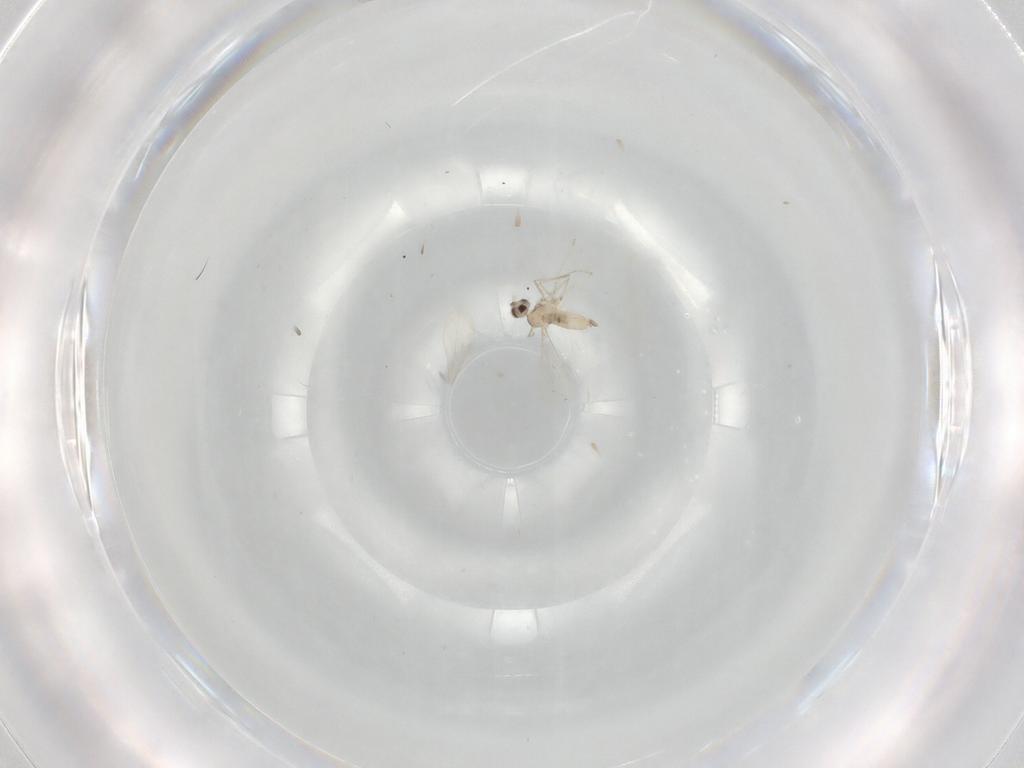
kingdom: Animalia
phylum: Arthropoda
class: Insecta
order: Diptera
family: Cecidomyiidae
